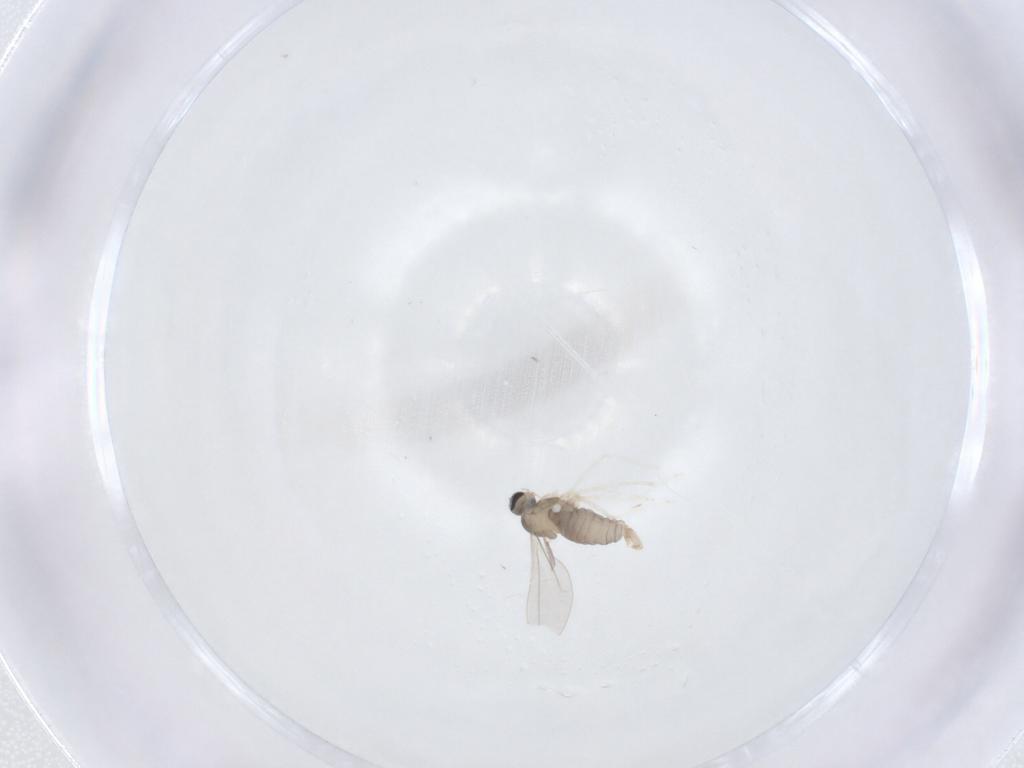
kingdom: Animalia
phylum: Arthropoda
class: Insecta
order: Diptera
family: Cecidomyiidae
